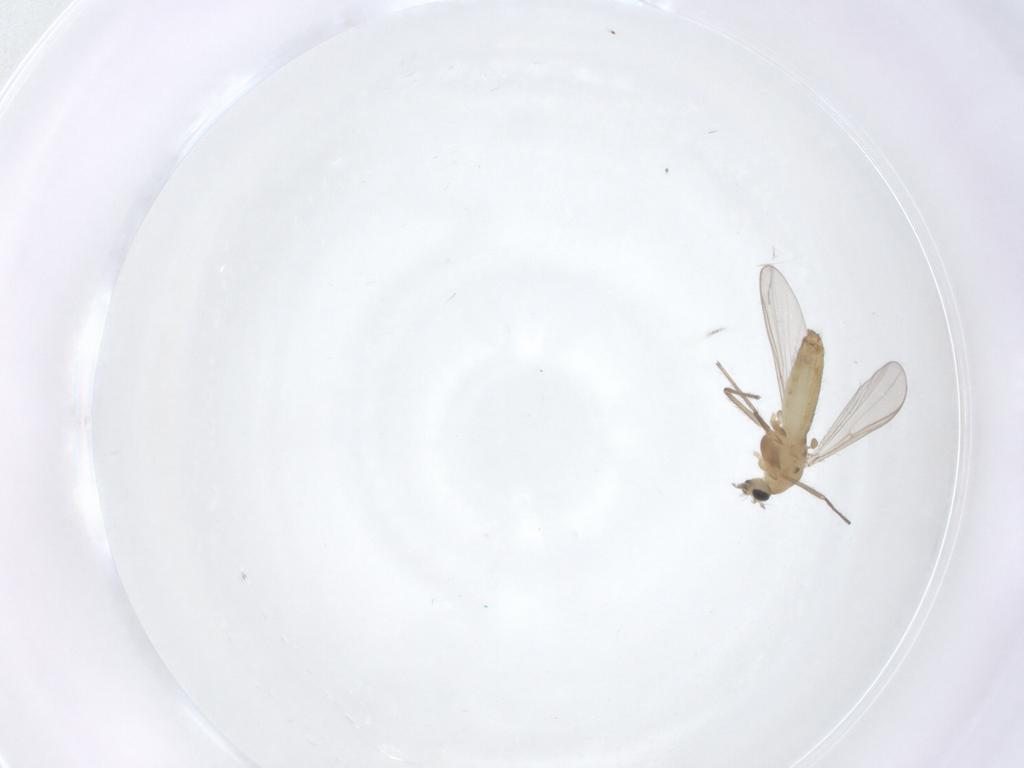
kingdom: Animalia
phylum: Arthropoda
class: Insecta
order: Diptera
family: Chironomidae
